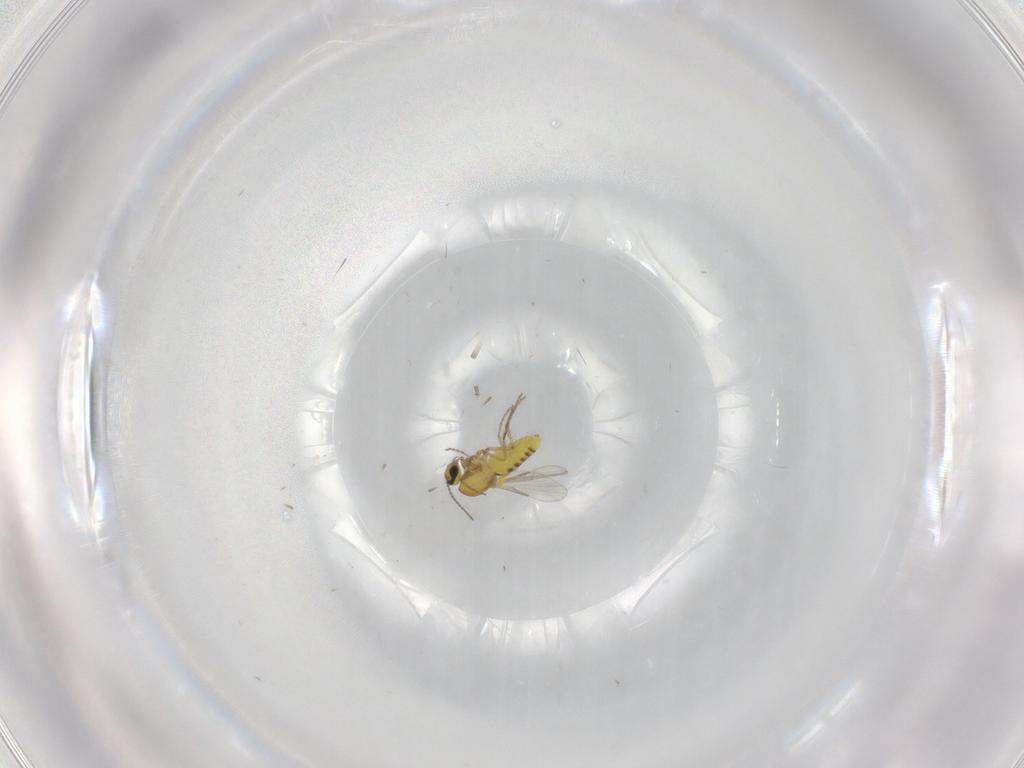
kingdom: Animalia
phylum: Arthropoda
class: Insecta
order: Diptera
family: Ceratopogonidae
